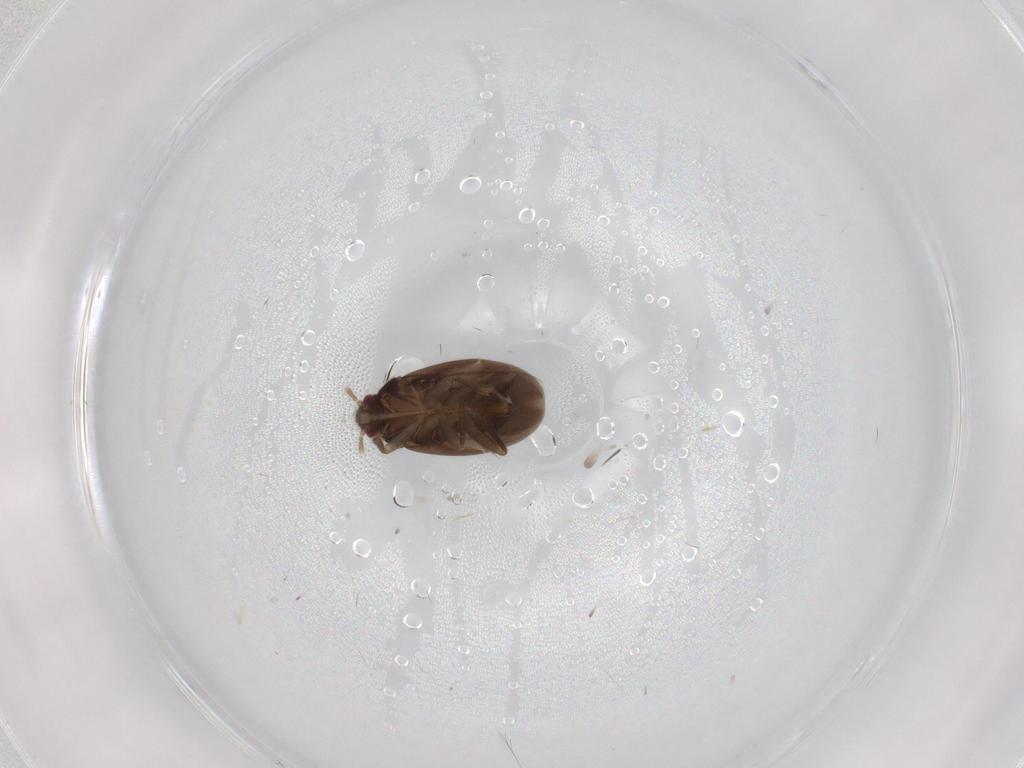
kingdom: Animalia
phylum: Arthropoda
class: Insecta
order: Hemiptera
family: Ceratocombidae
